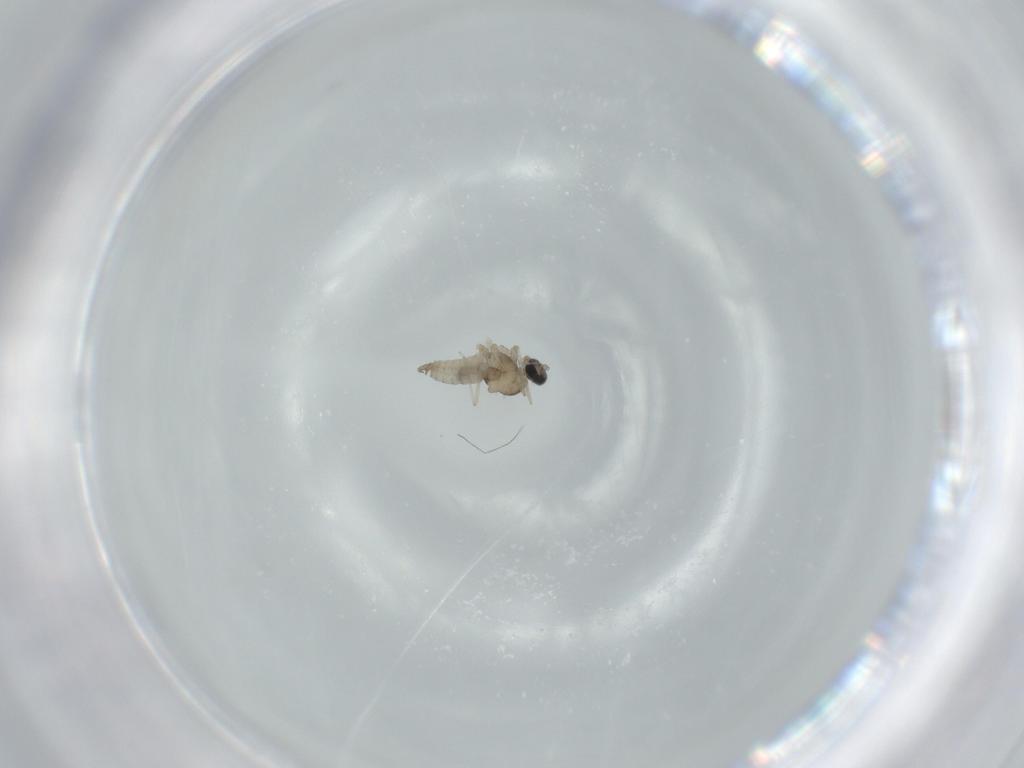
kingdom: Animalia
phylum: Arthropoda
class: Insecta
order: Diptera
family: Cecidomyiidae
